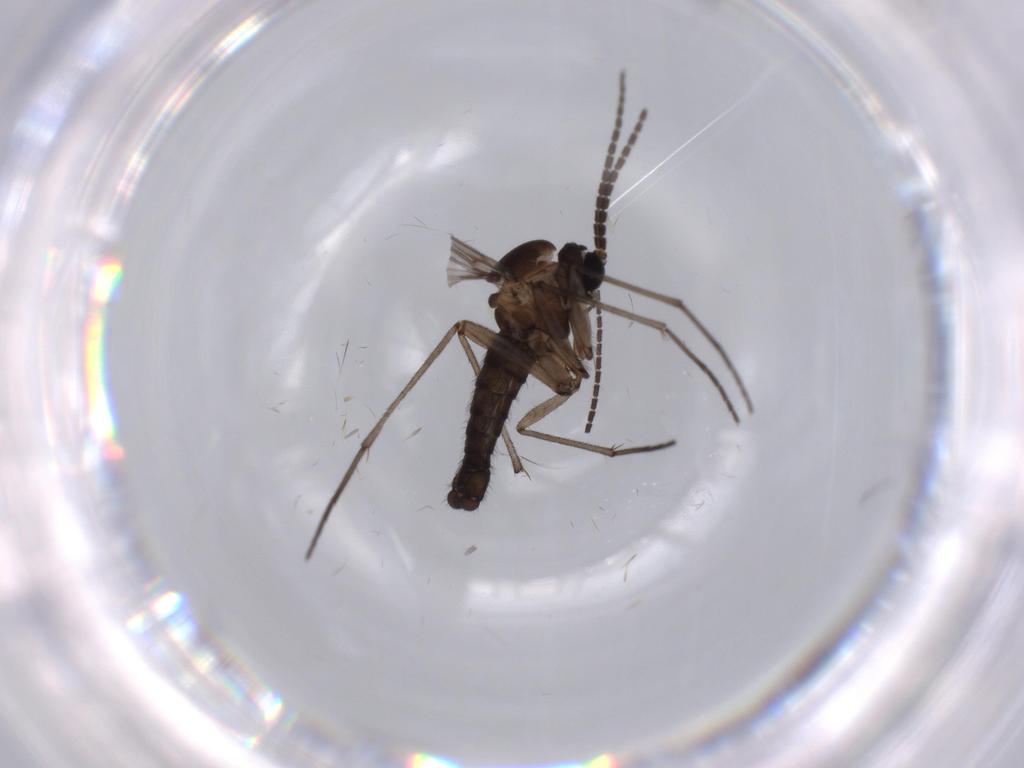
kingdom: Animalia
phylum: Arthropoda
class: Insecta
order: Diptera
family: Sciaridae
